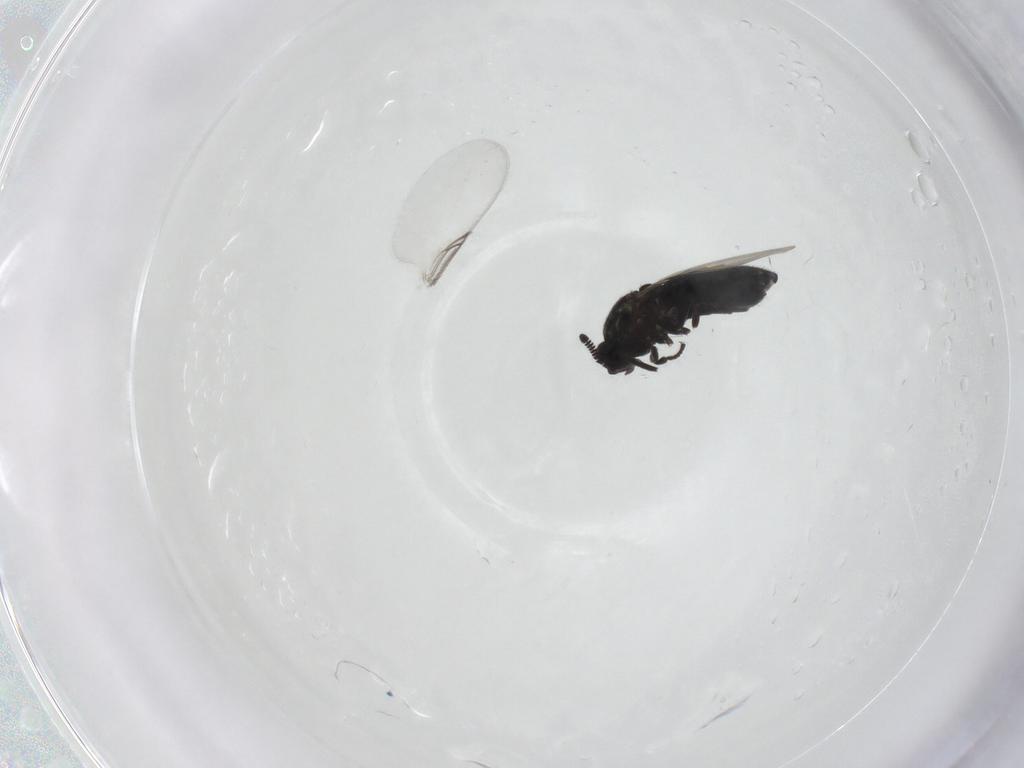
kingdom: Animalia
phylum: Arthropoda
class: Insecta
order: Diptera
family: Scatopsidae
